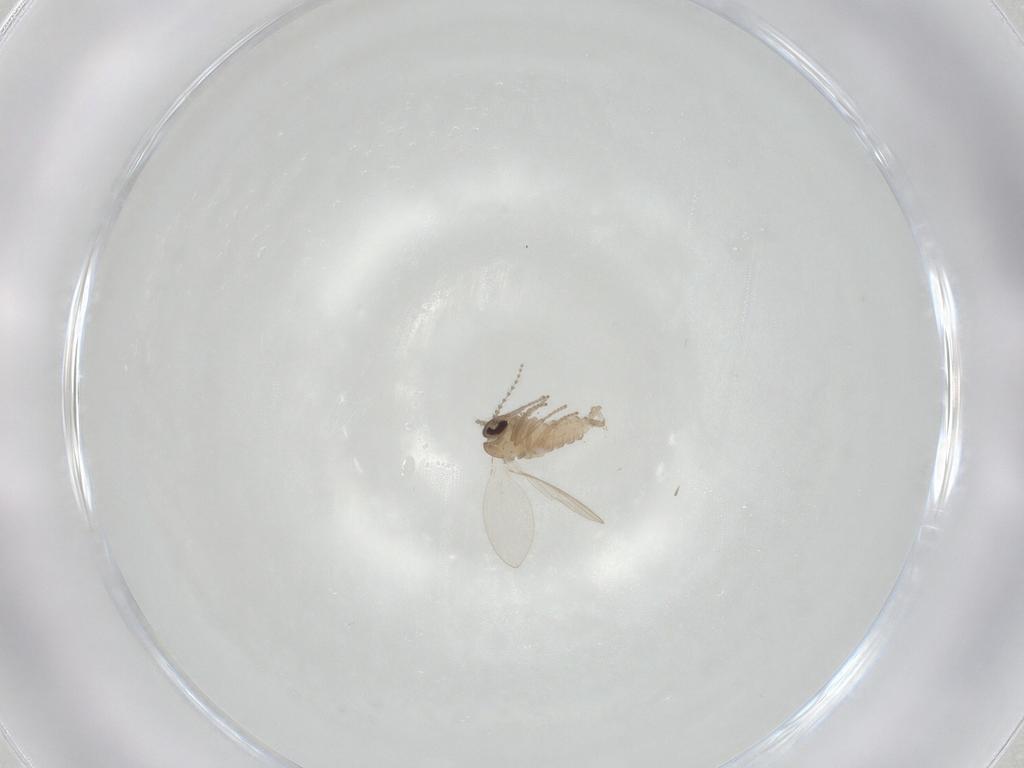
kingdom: Animalia
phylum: Arthropoda
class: Insecta
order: Diptera
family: Psychodidae
